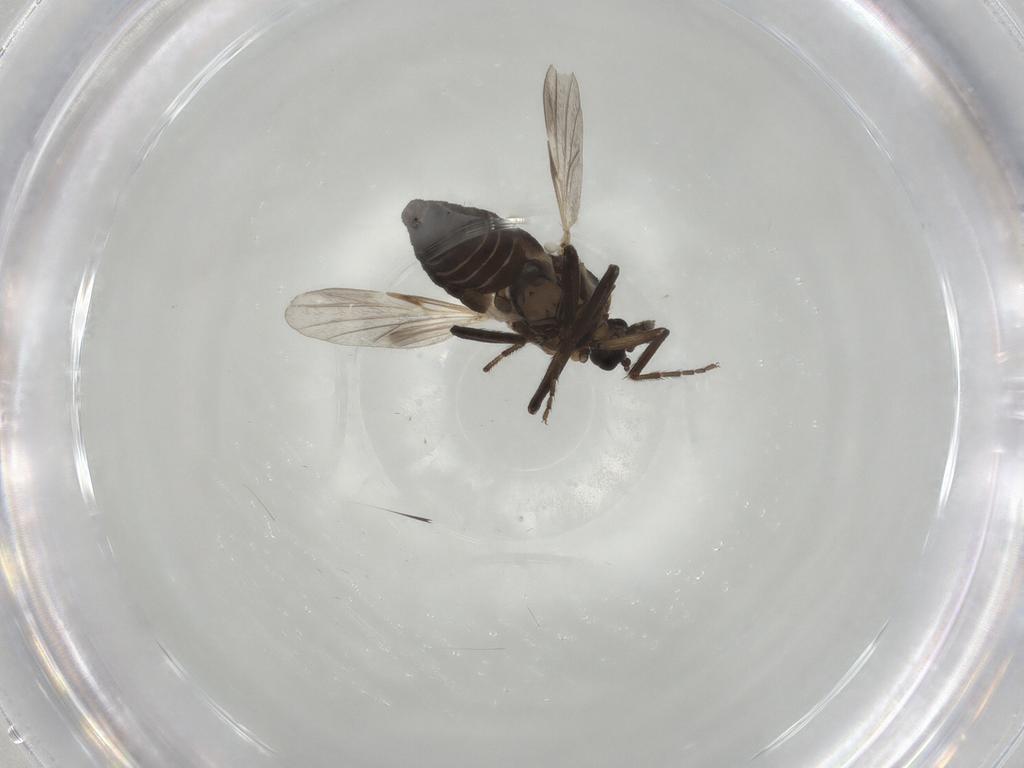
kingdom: Animalia
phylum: Arthropoda
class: Insecta
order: Diptera
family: Ceratopogonidae
